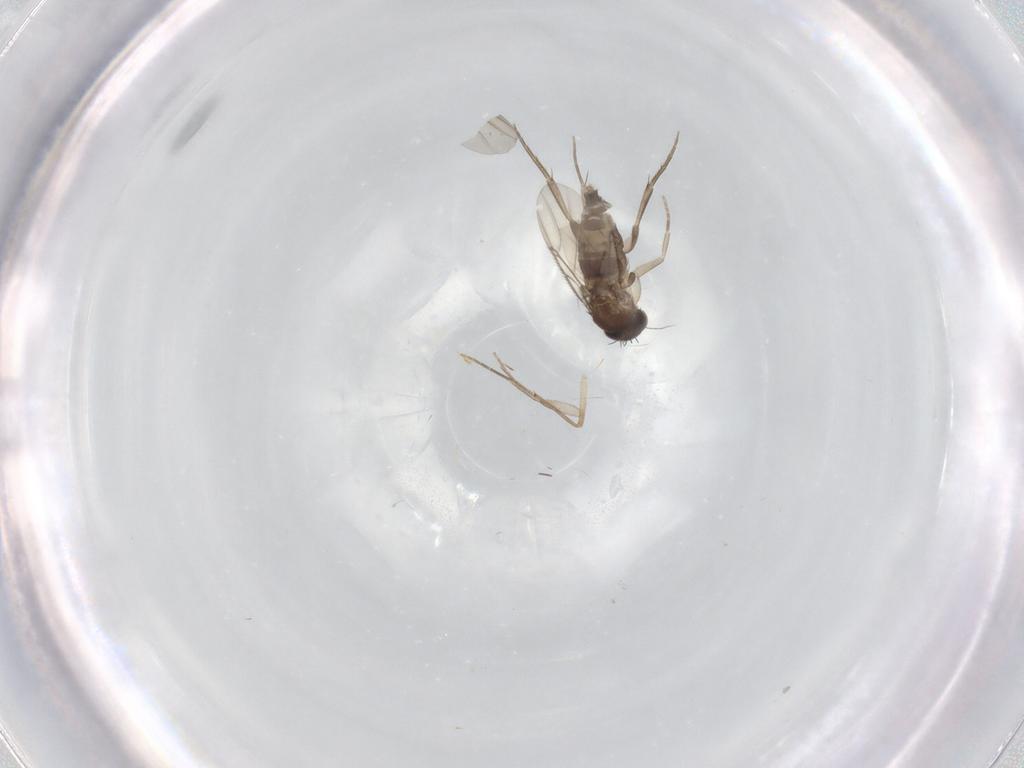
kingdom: Animalia
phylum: Arthropoda
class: Insecta
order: Diptera
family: Phoridae
